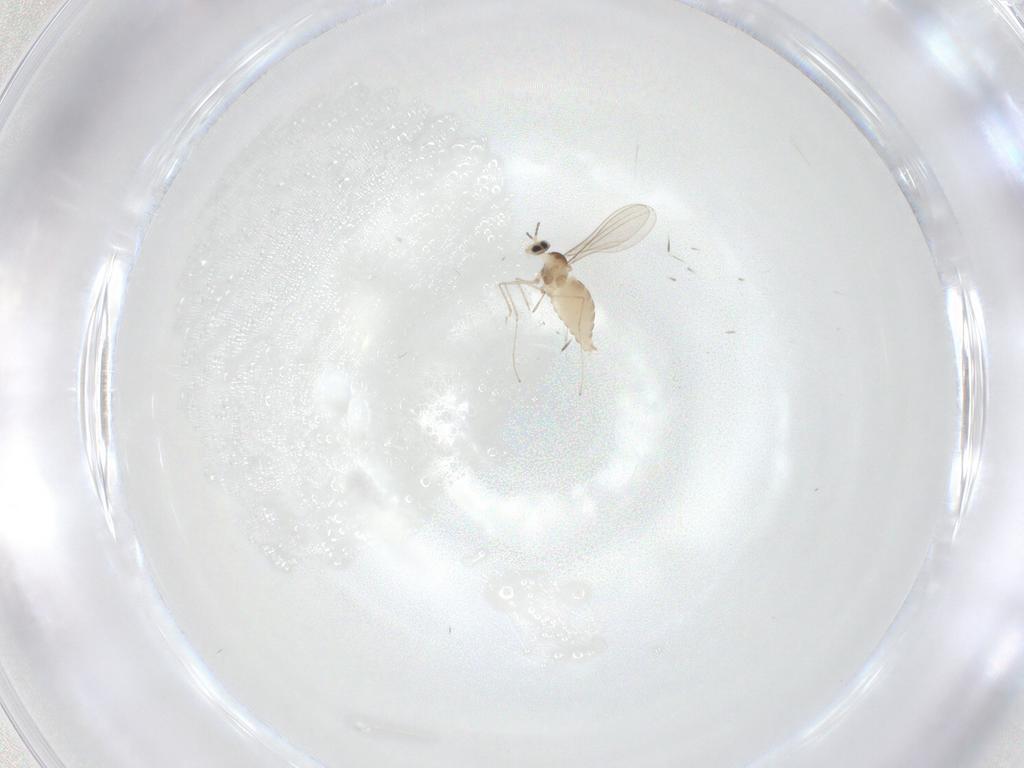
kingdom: Animalia
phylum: Arthropoda
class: Insecta
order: Diptera
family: Cecidomyiidae
